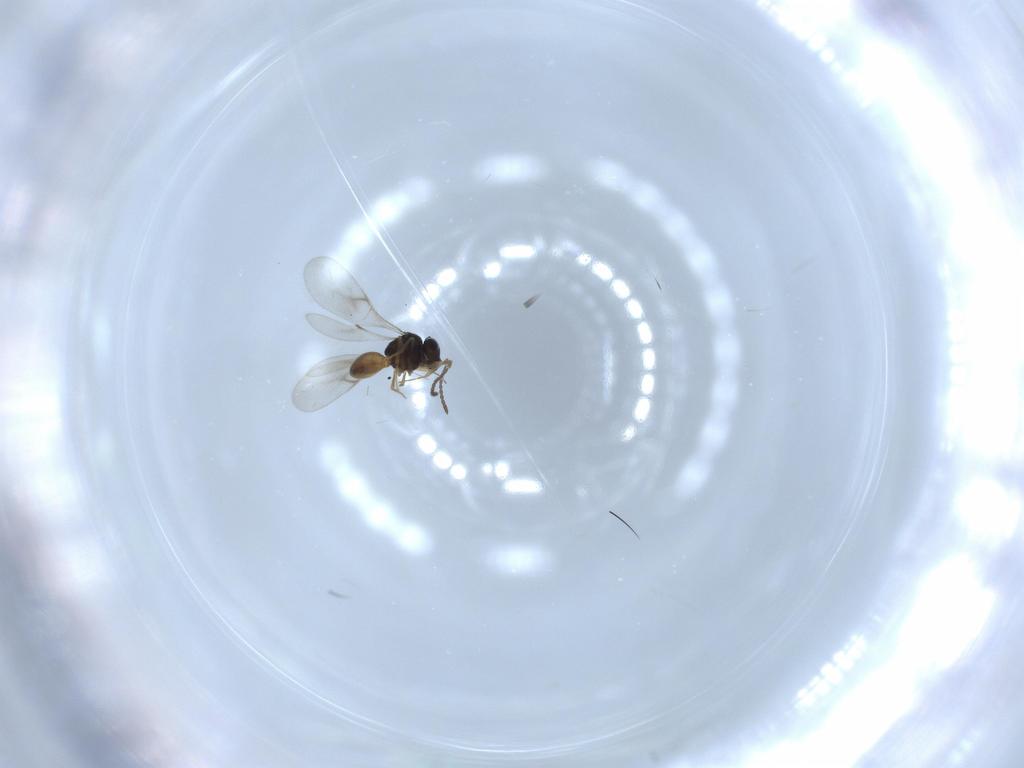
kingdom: Animalia
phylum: Arthropoda
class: Insecta
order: Hymenoptera
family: Scelionidae
